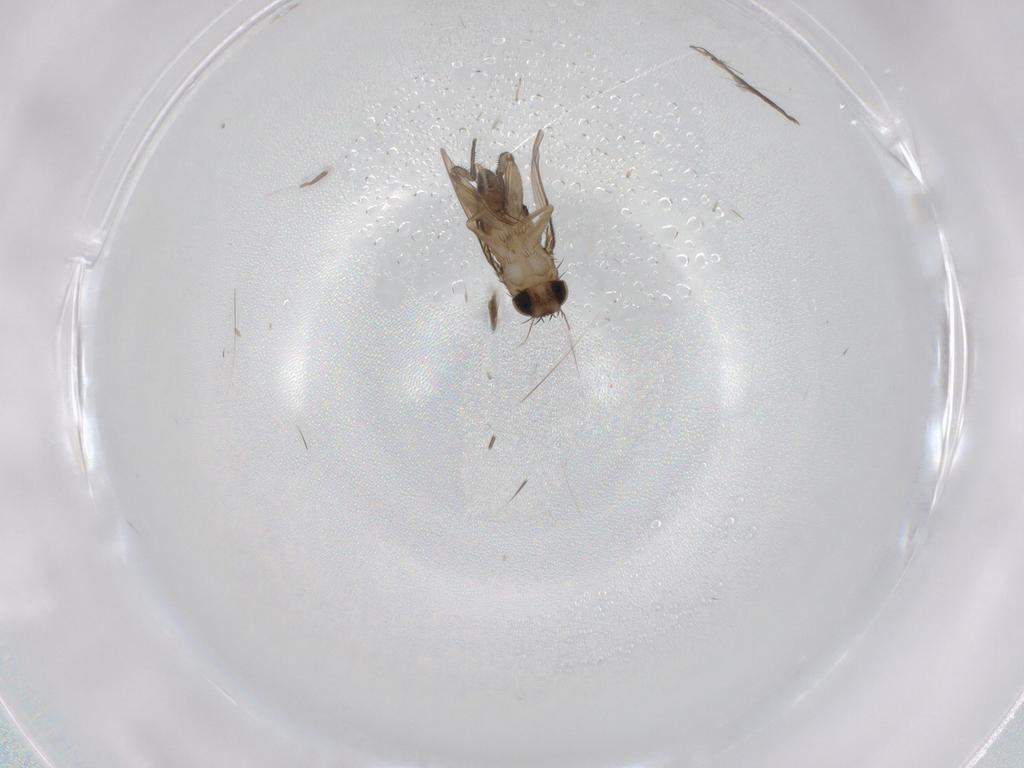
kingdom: Animalia
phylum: Arthropoda
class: Insecta
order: Diptera
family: Phoridae
